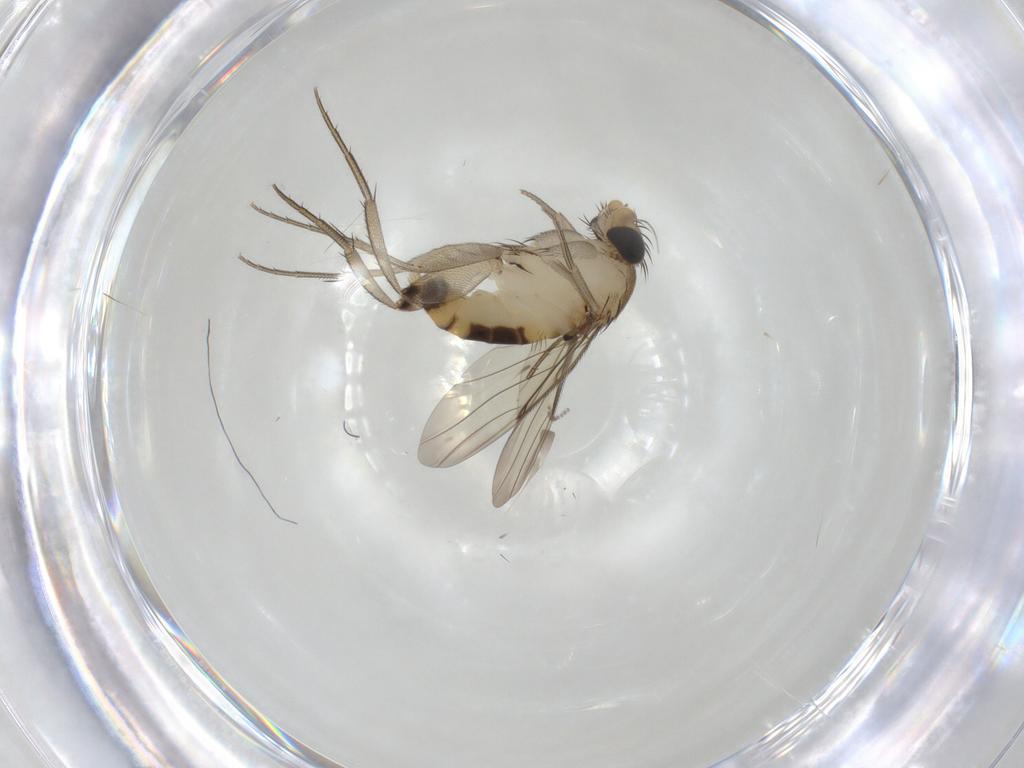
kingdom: Animalia
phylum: Arthropoda
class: Insecta
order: Diptera
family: Phoridae
